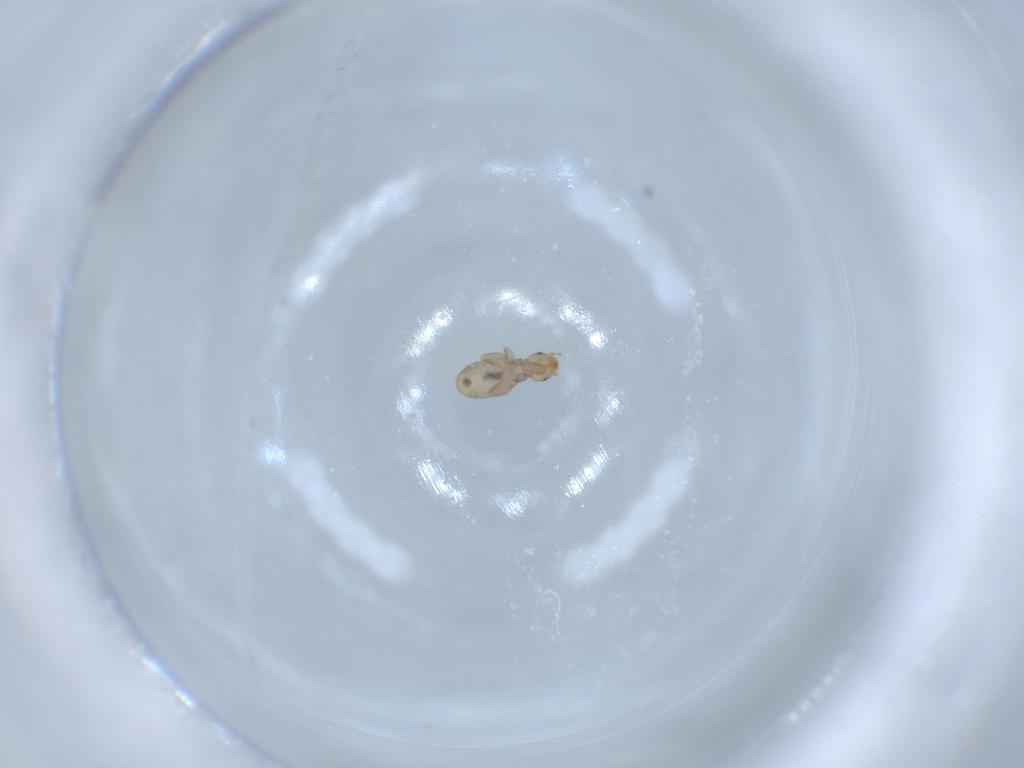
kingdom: Animalia
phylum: Arthropoda
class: Insecta
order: Psocodea
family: Liposcelididae
